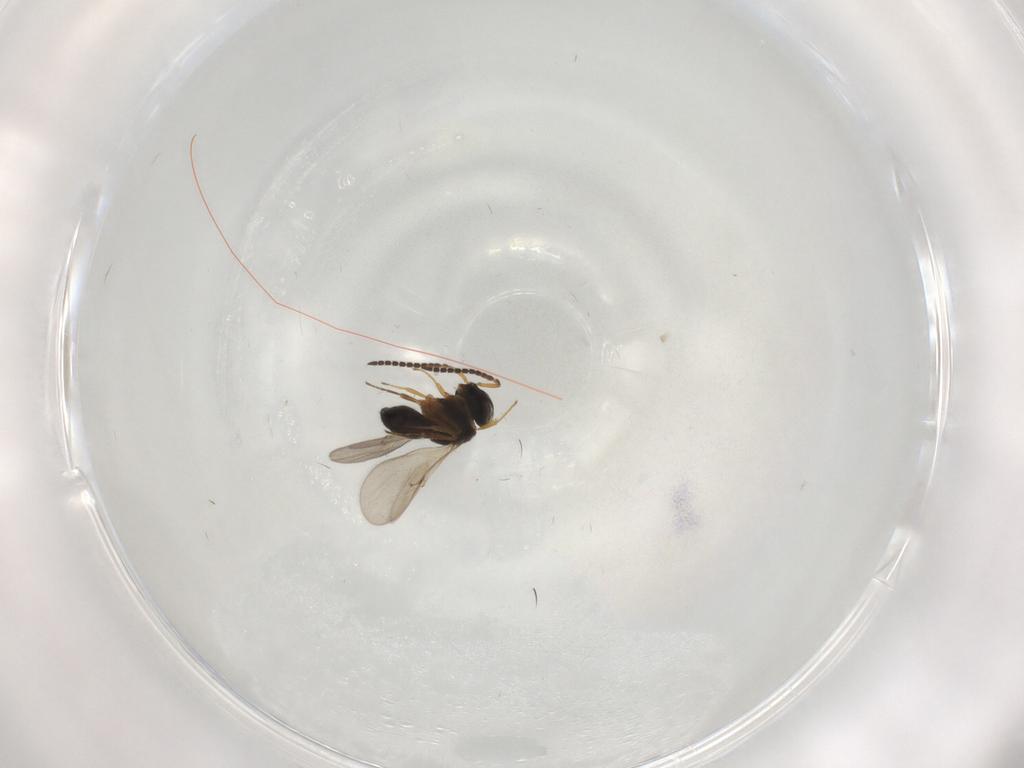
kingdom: Animalia
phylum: Arthropoda
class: Insecta
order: Hymenoptera
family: Scelionidae
